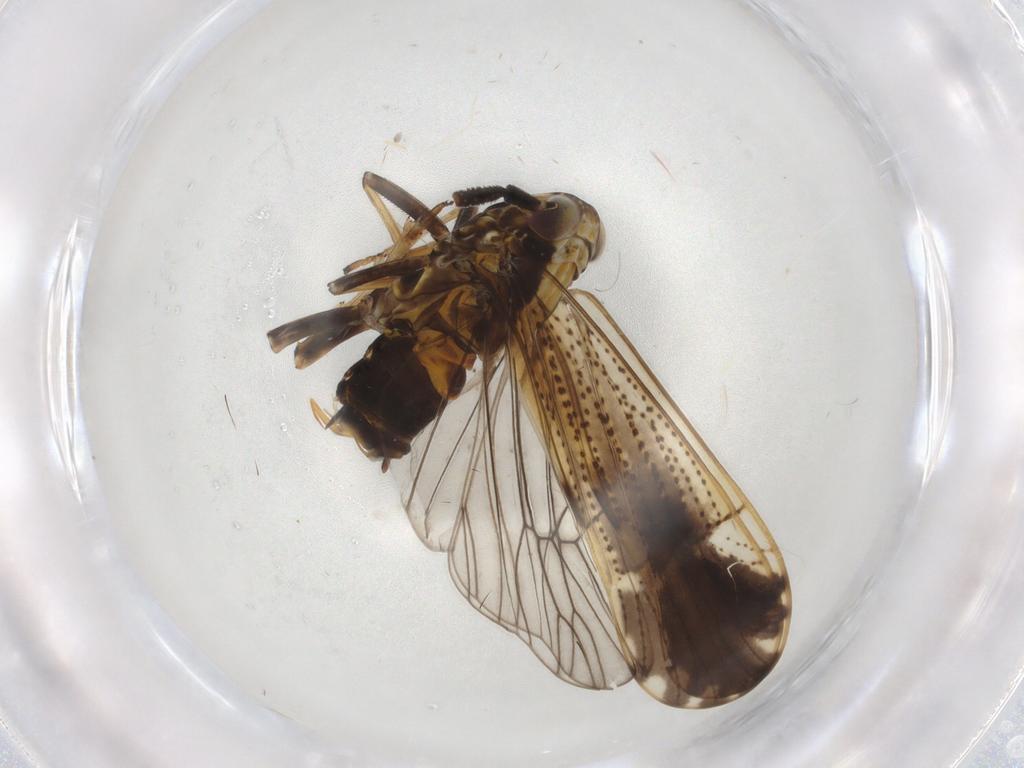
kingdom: Animalia
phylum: Arthropoda
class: Insecta
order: Hemiptera
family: Delphacidae
